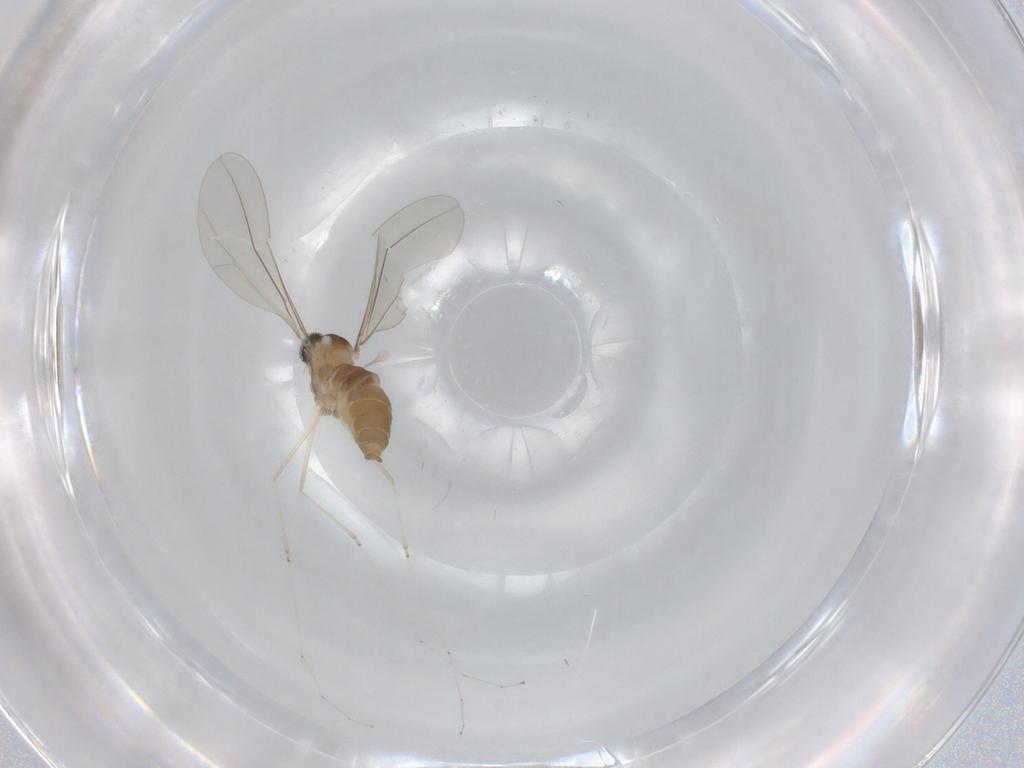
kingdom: Animalia
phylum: Arthropoda
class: Insecta
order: Diptera
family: Cecidomyiidae
